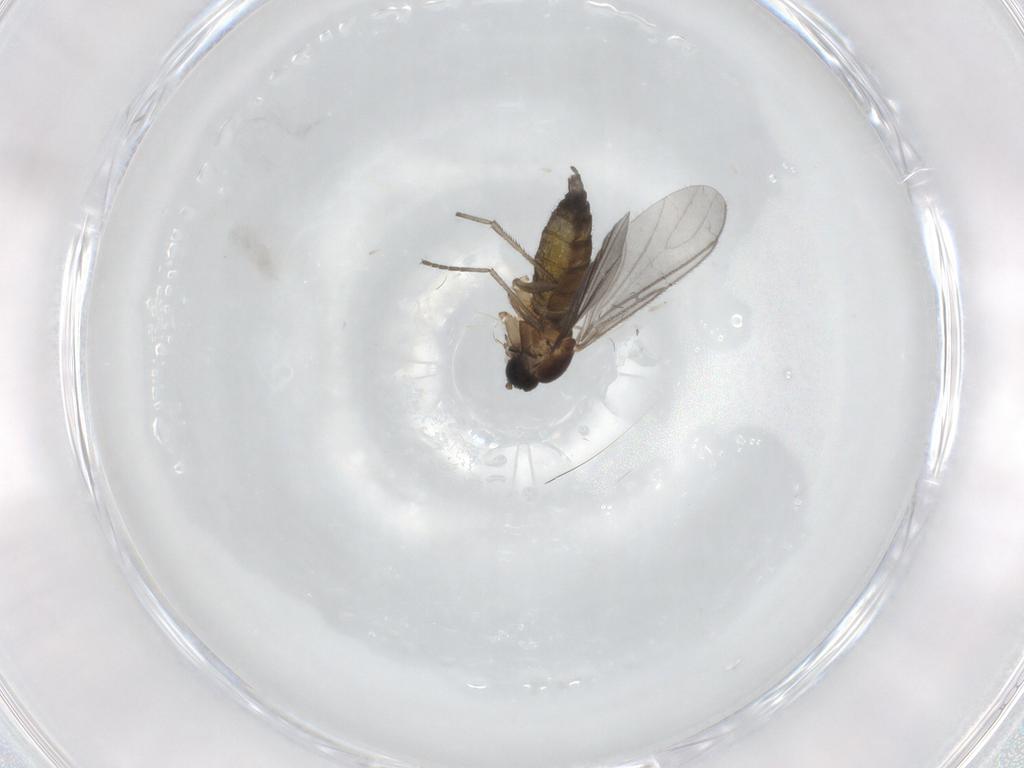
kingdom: Animalia
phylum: Arthropoda
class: Insecta
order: Diptera
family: Sciaridae
